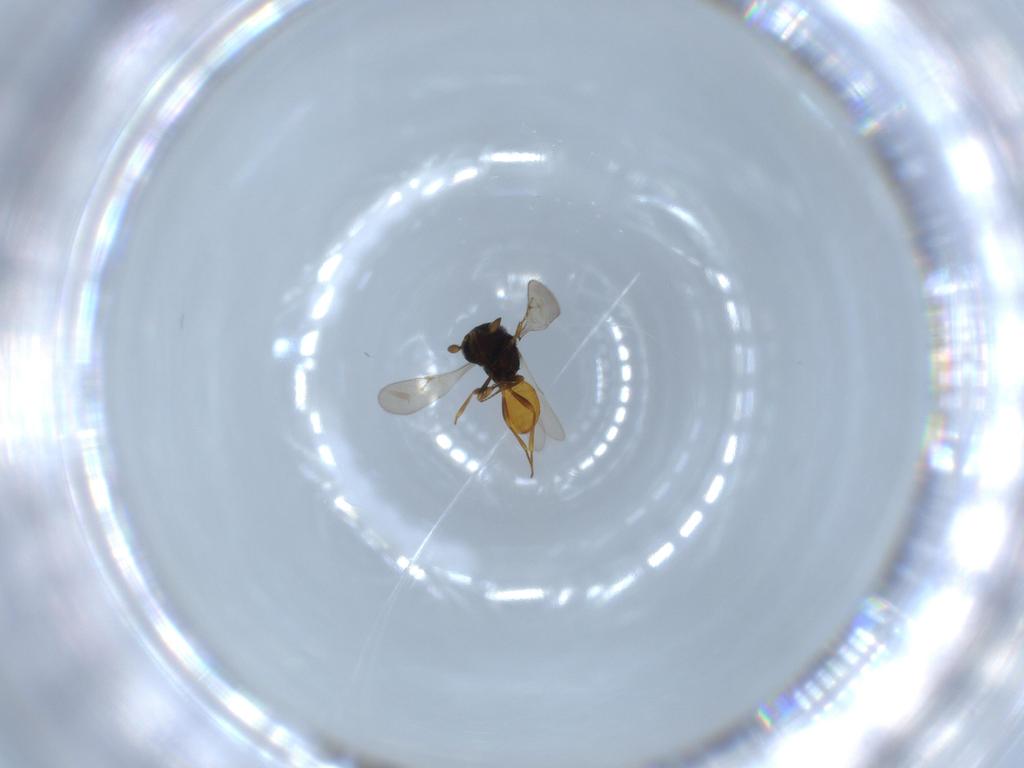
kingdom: Animalia
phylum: Arthropoda
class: Insecta
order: Hymenoptera
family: Scelionidae
